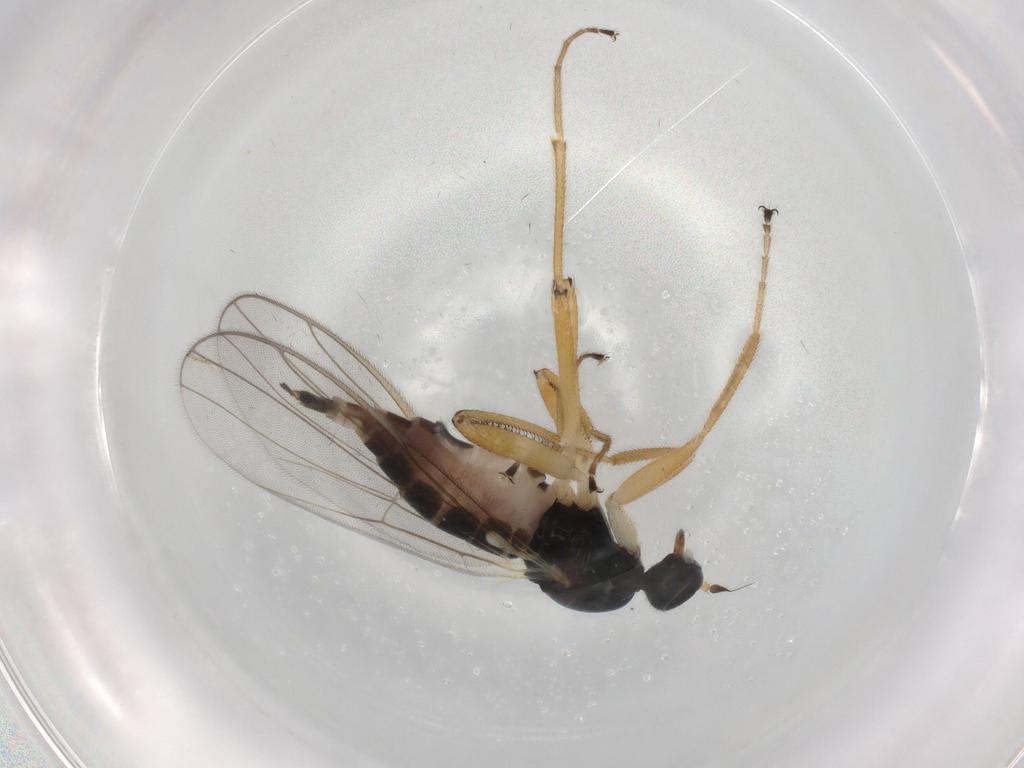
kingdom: Animalia
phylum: Arthropoda
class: Insecta
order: Diptera
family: Hybotidae
